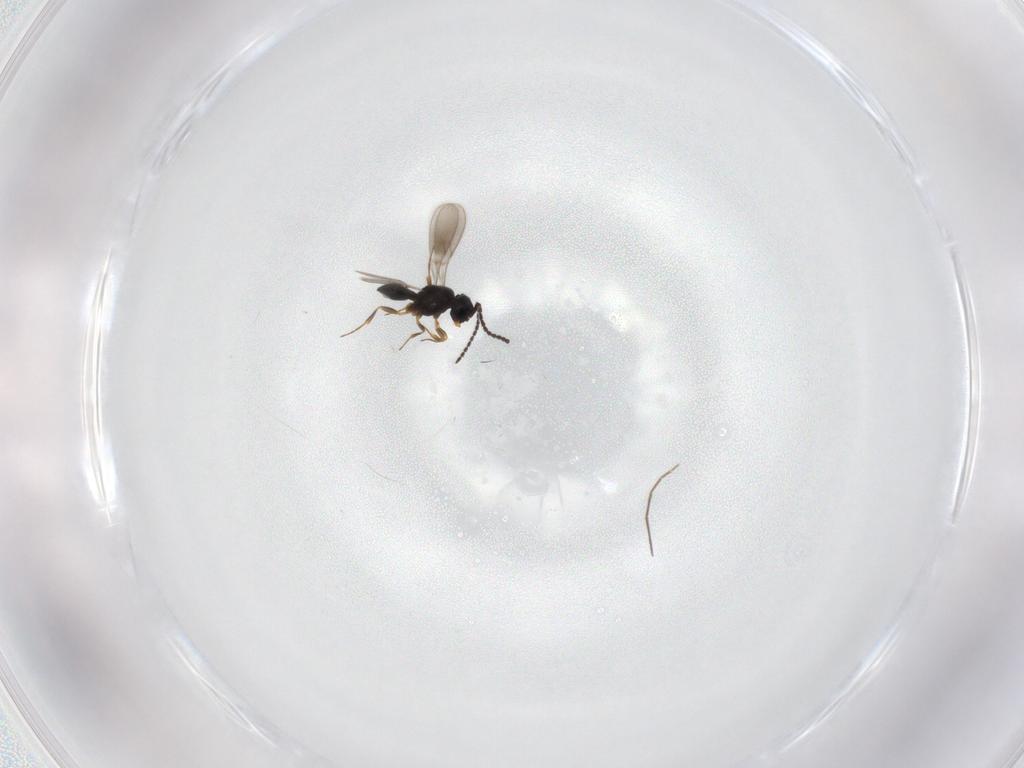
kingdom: Animalia
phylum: Arthropoda
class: Insecta
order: Hymenoptera
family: Scelionidae
